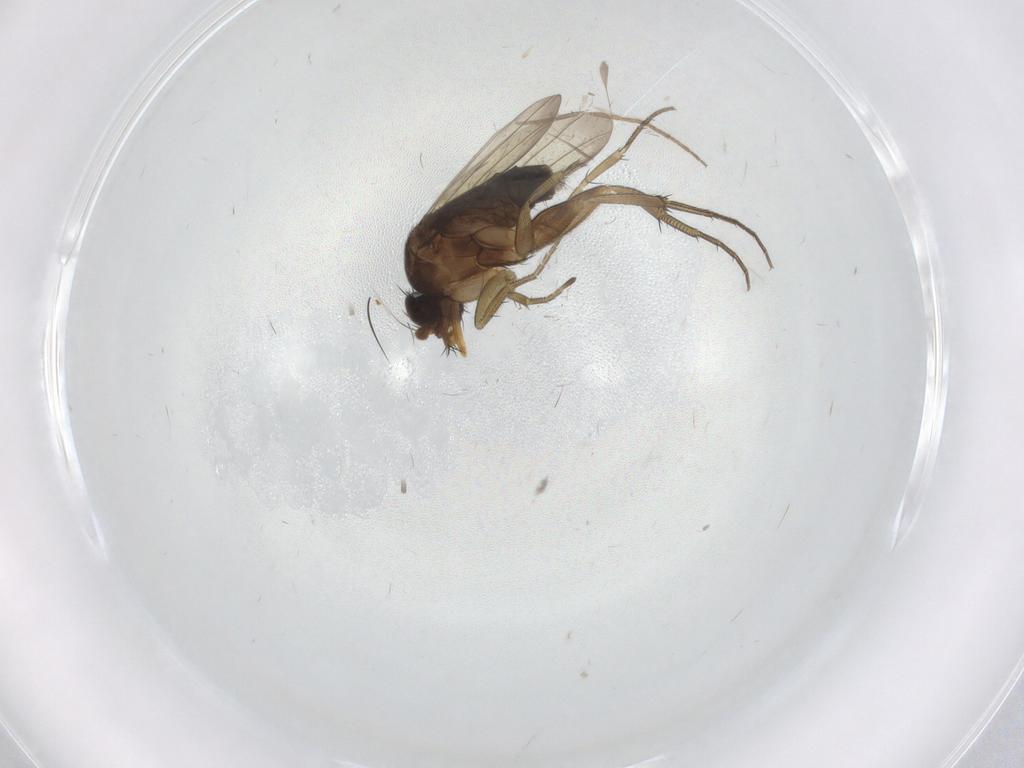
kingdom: Animalia
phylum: Arthropoda
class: Insecta
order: Diptera
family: Phoridae
